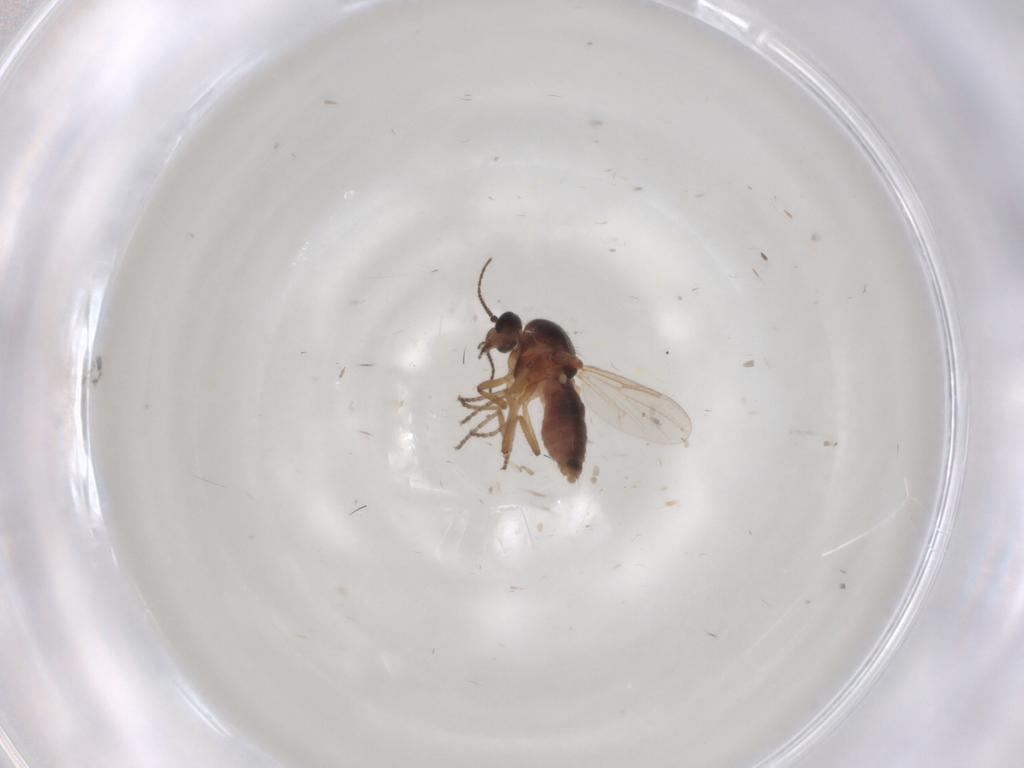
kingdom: Animalia
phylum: Arthropoda
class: Insecta
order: Diptera
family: Ceratopogonidae
